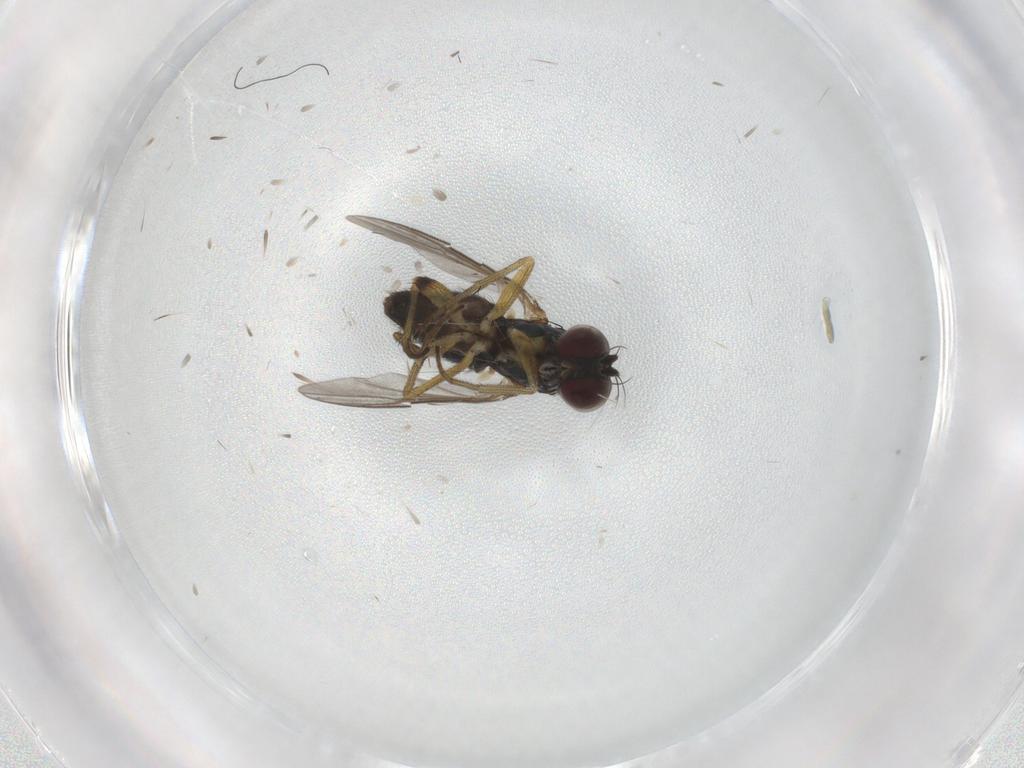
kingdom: Animalia
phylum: Arthropoda
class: Insecta
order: Diptera
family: Dolichopodidae
